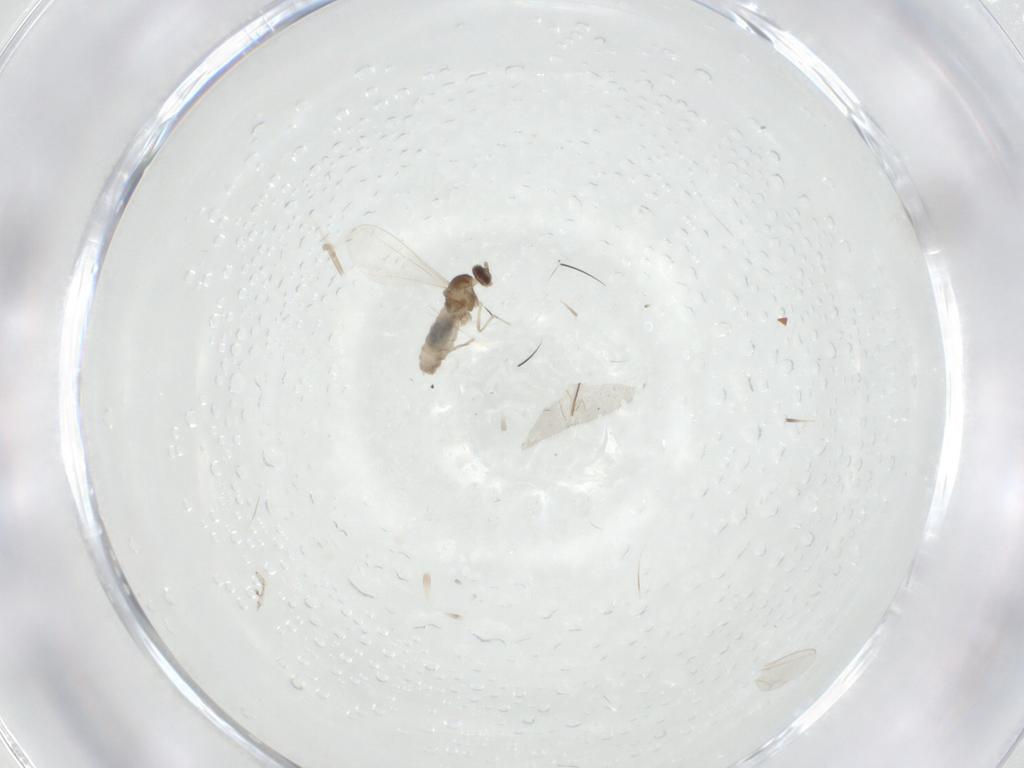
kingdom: Animalia
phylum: Arthropoda
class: Insecta
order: Diptera
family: Cecidomyiidae
